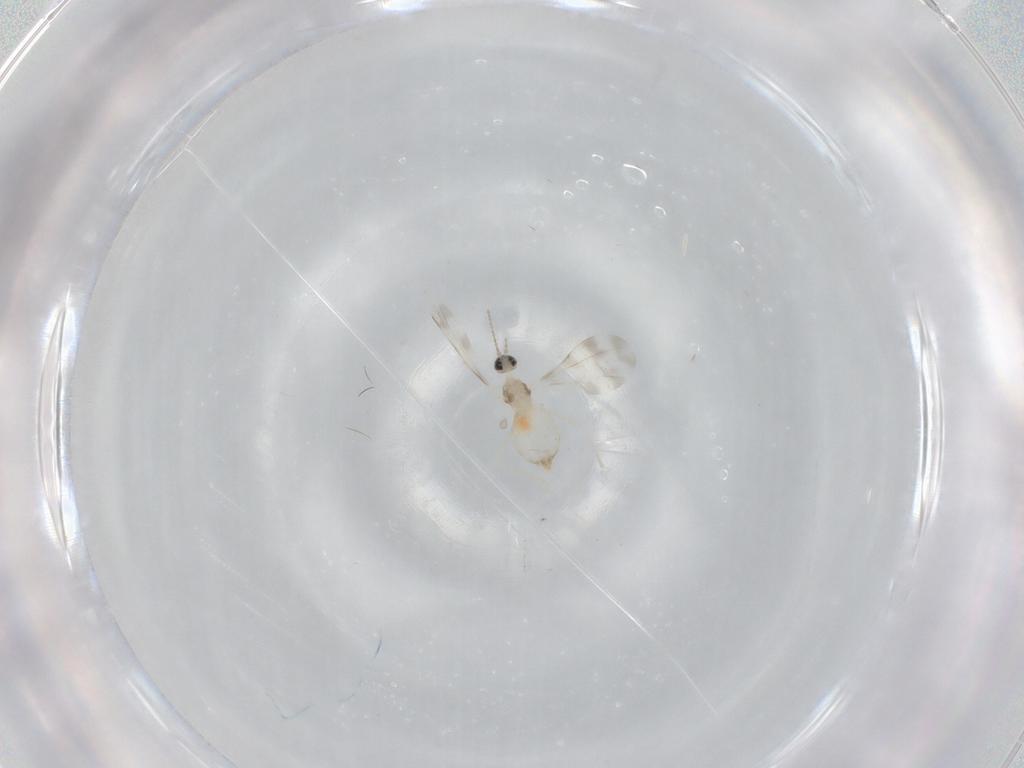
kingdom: Animalia
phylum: Arthropoda
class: Insecta
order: Diptera
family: Cecidomyiidae
